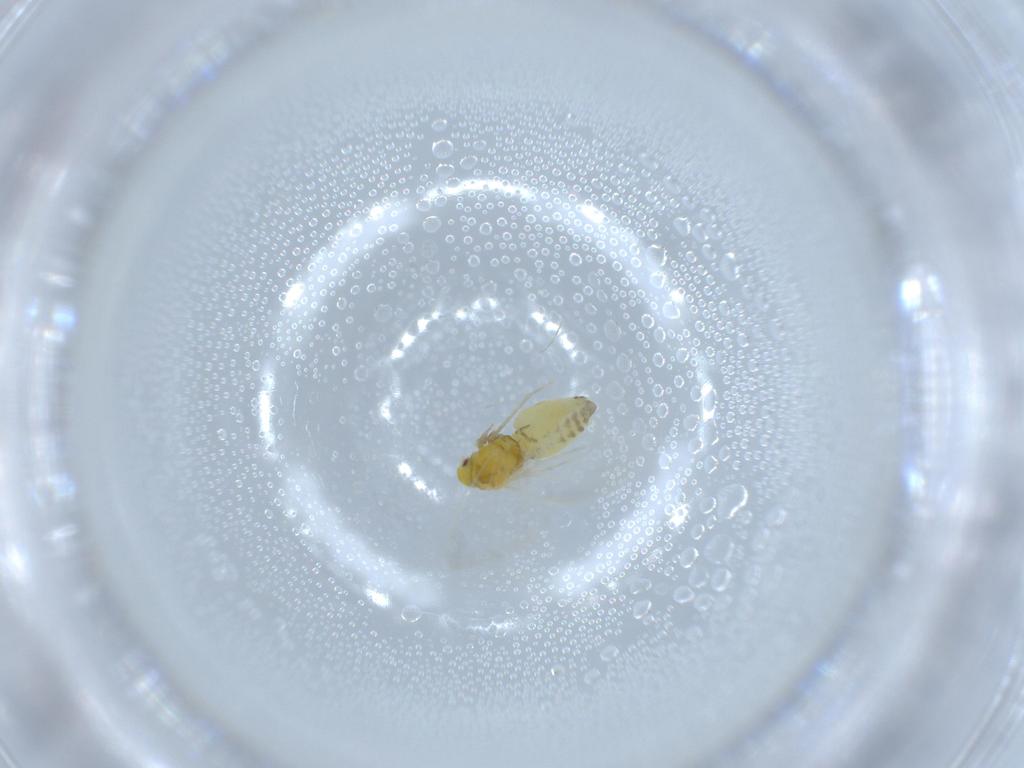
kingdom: Animalia
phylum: Arthropoda
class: Insecta
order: Hemiptera
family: Aleyrodidae
